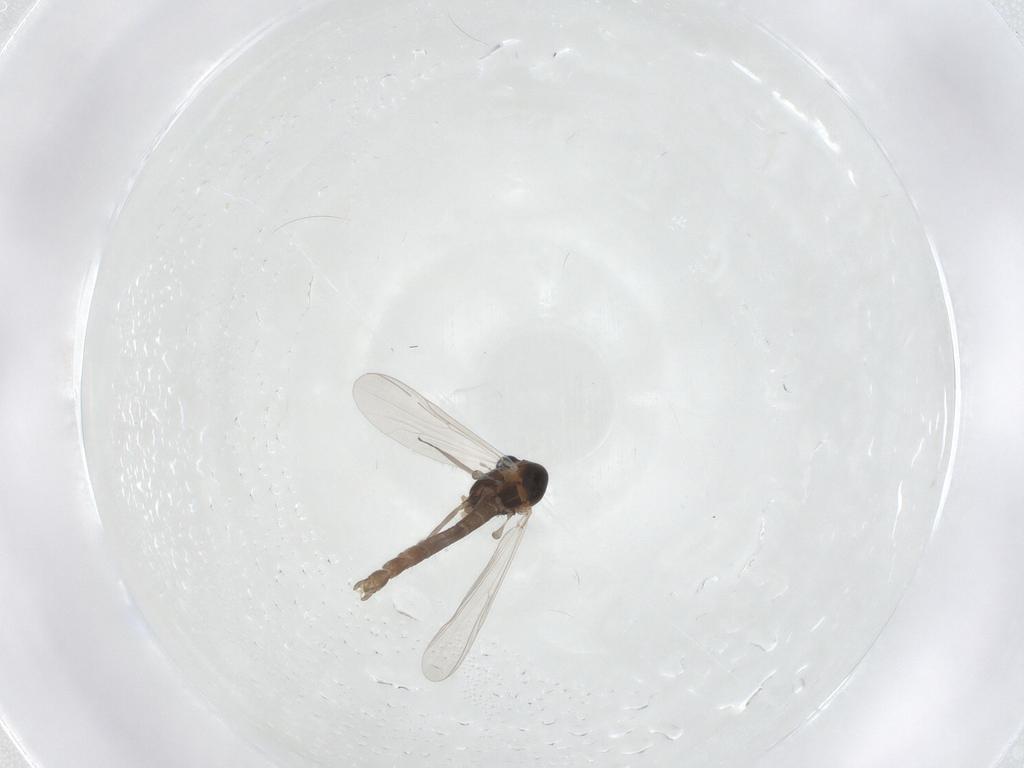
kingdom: Animalia
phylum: Arthropoda
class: Insecta
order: Diptera
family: Chironomidae
